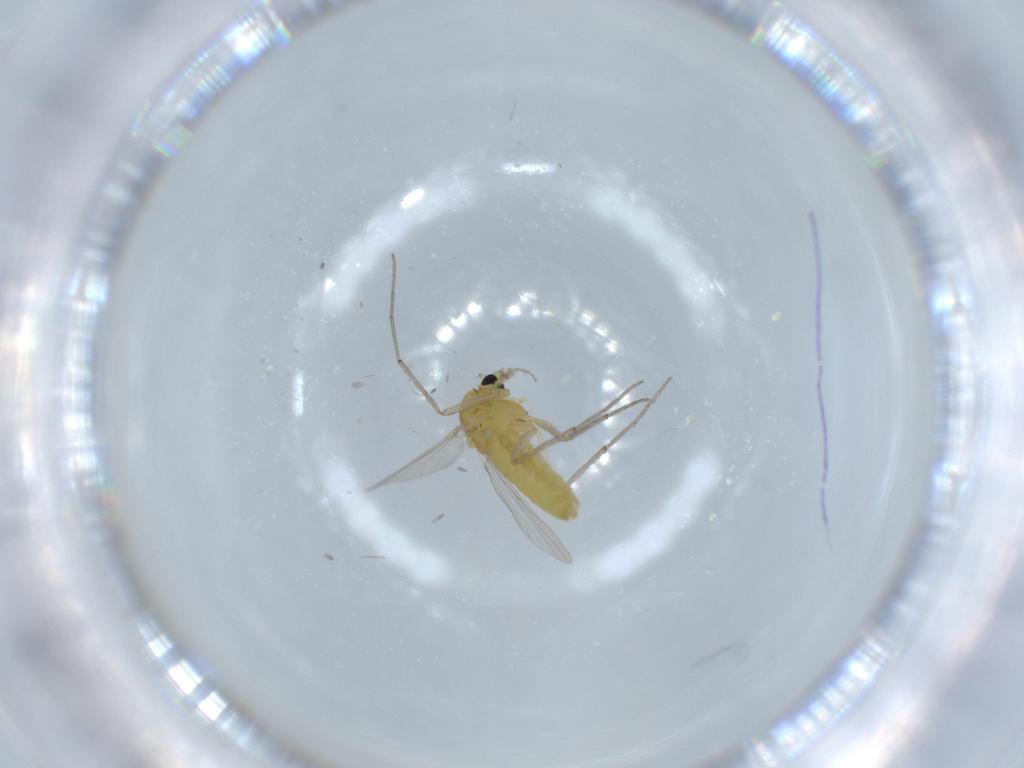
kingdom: Animalia
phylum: Arthropoda
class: Insecta
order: Diptera
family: Chironomidae
